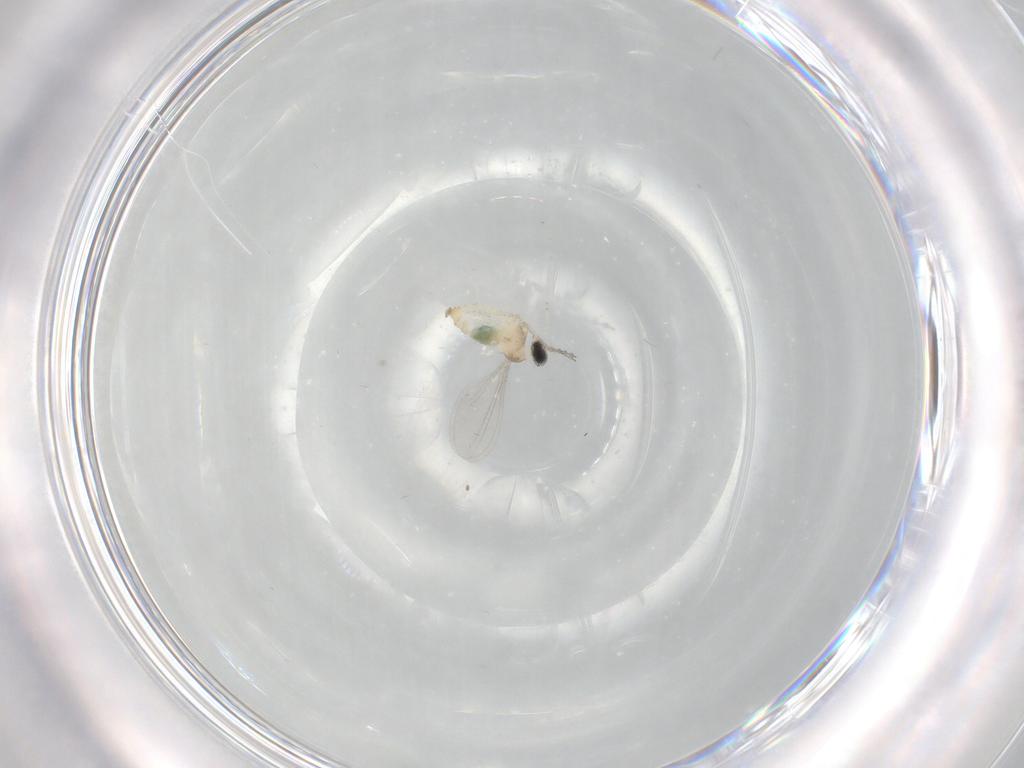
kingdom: Animalia
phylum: Arthropoda
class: Insecta
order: Diptera
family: Cecidomyiidae
